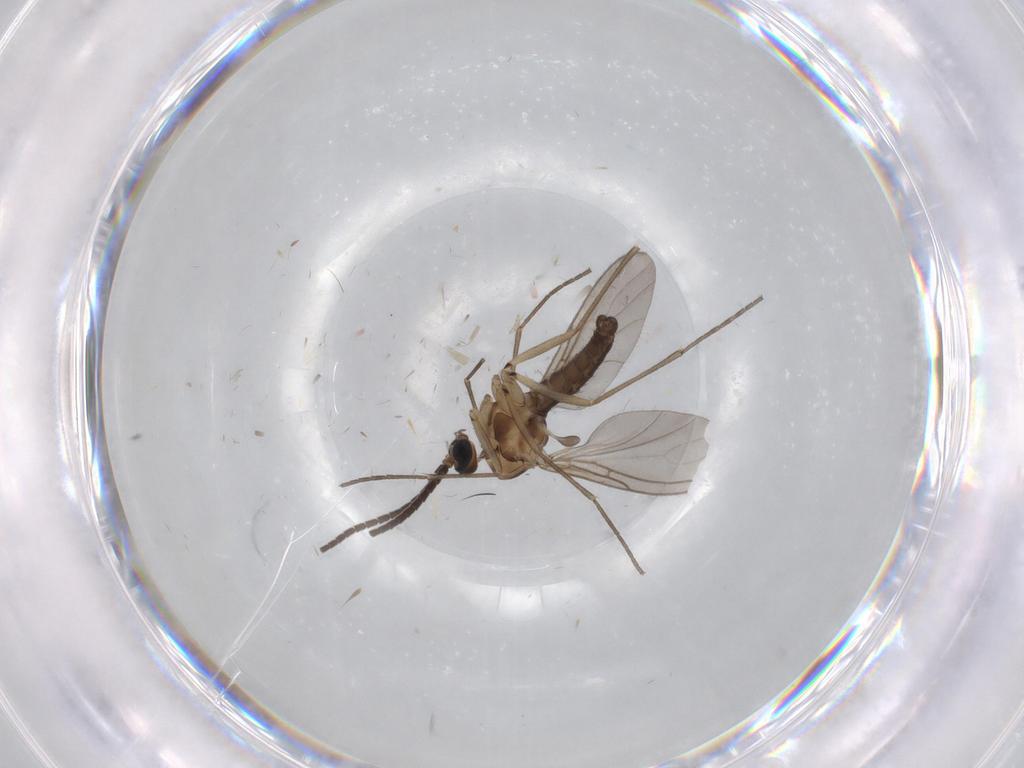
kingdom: Animalia
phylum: Arthropoda
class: Insecta
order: Diptera
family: Sciaridae
